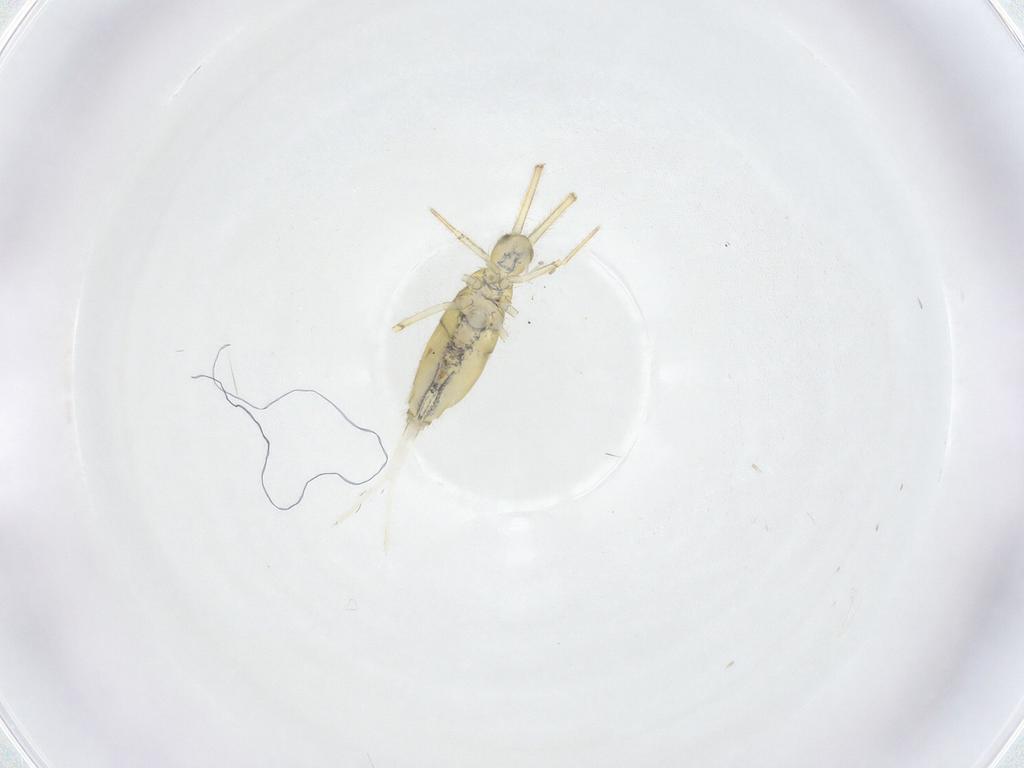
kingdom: Animalia
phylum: Arthropoda
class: Collembola
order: Entomobryomorpha
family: Paronellidae
